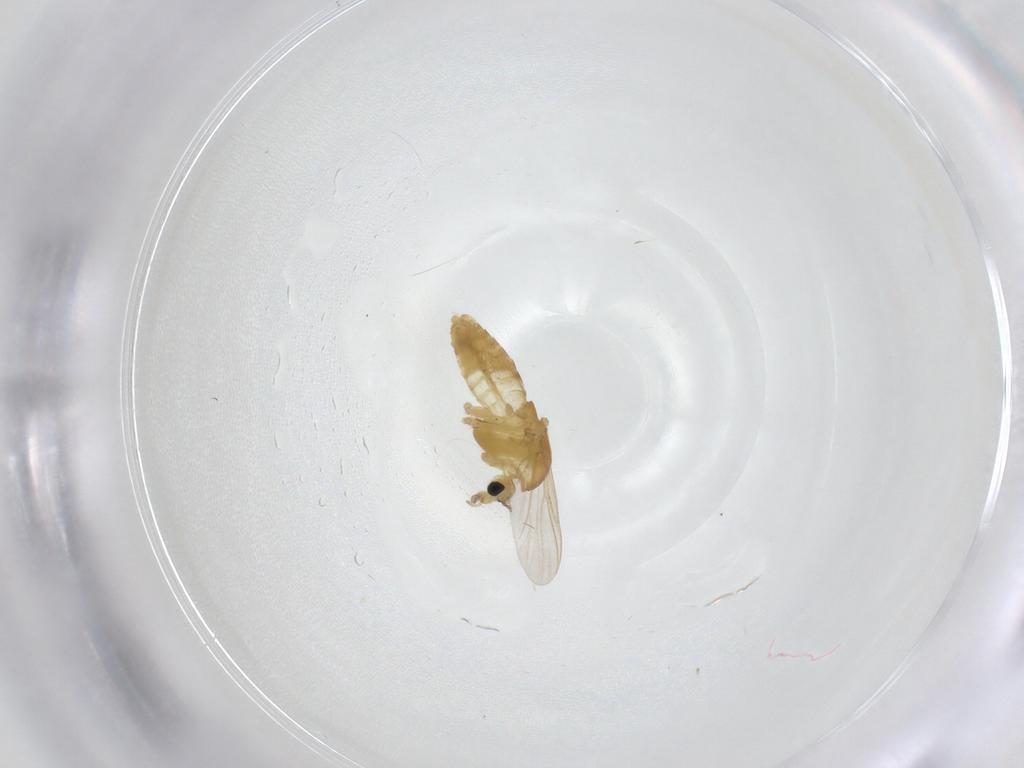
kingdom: Animalia
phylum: Arthropoda
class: Insecta
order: Diptera
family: Chironomidae
